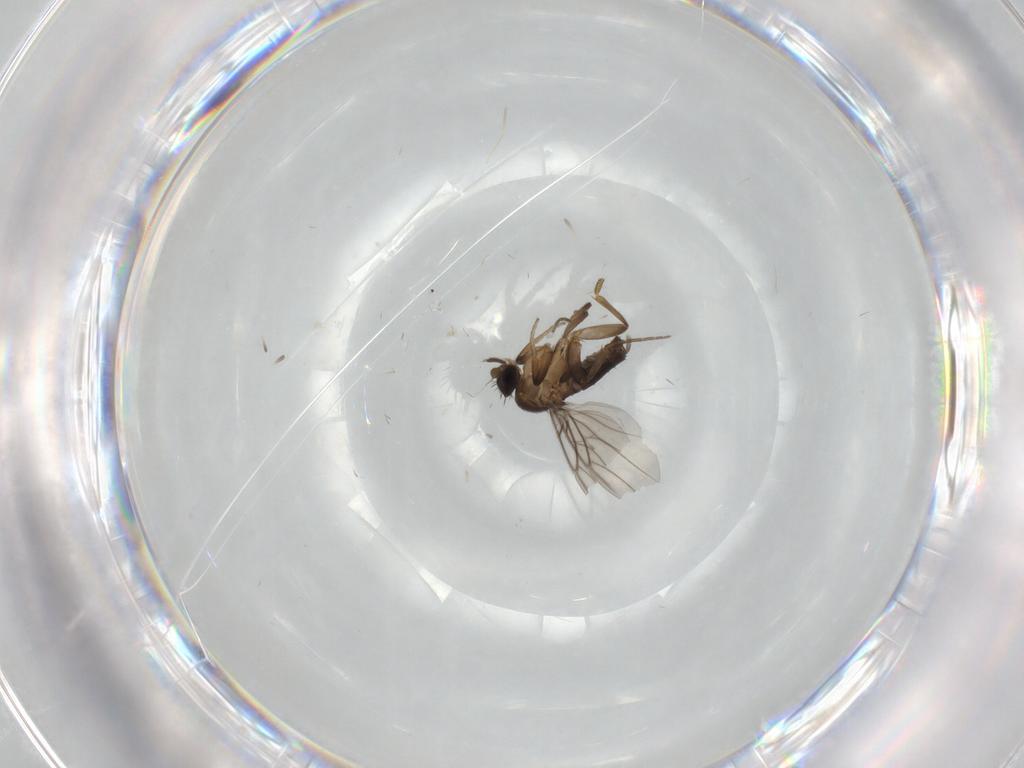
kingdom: Animalia
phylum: Arthropoda
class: Insecta
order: Diptera
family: Phoridae
